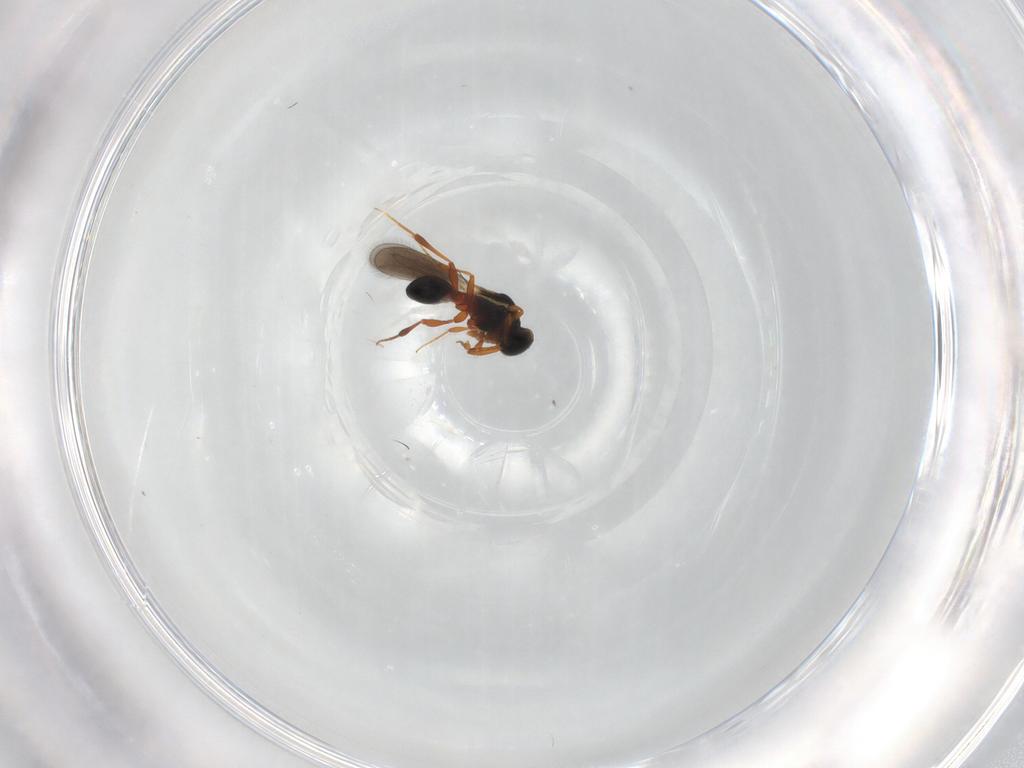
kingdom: Animalia
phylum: Arthropoda
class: Insecta
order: Hymenoptera
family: Platygastridae
